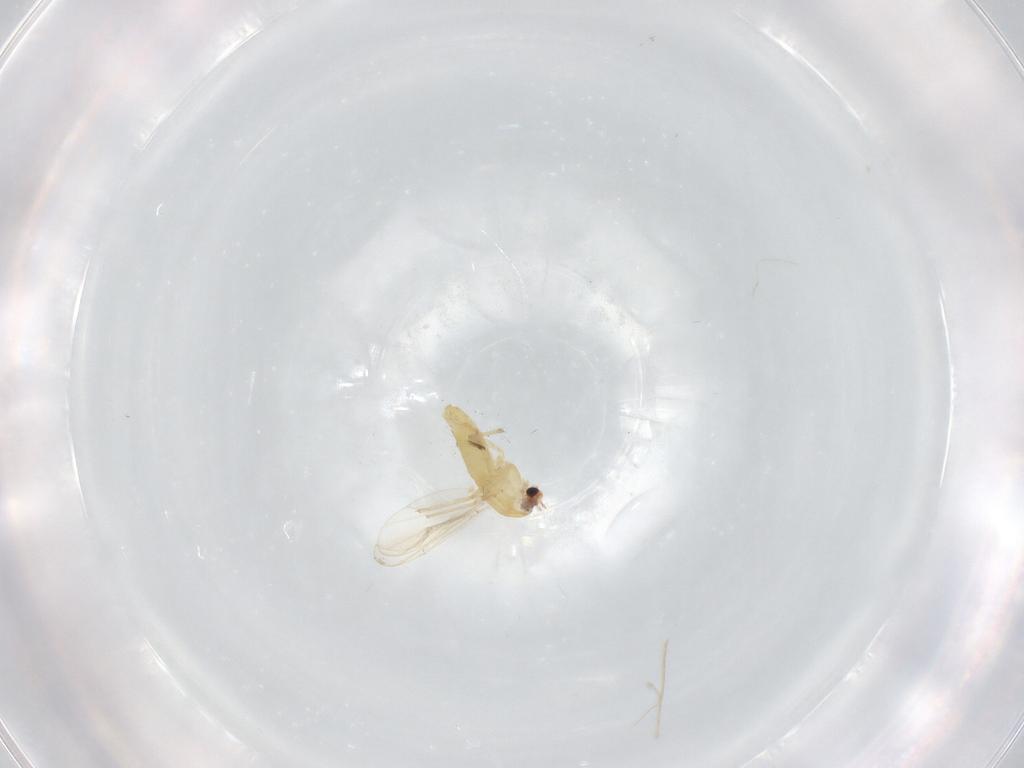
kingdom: Animalia
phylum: Arthropoda
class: Insecta
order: Diptera
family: Chironomidae
